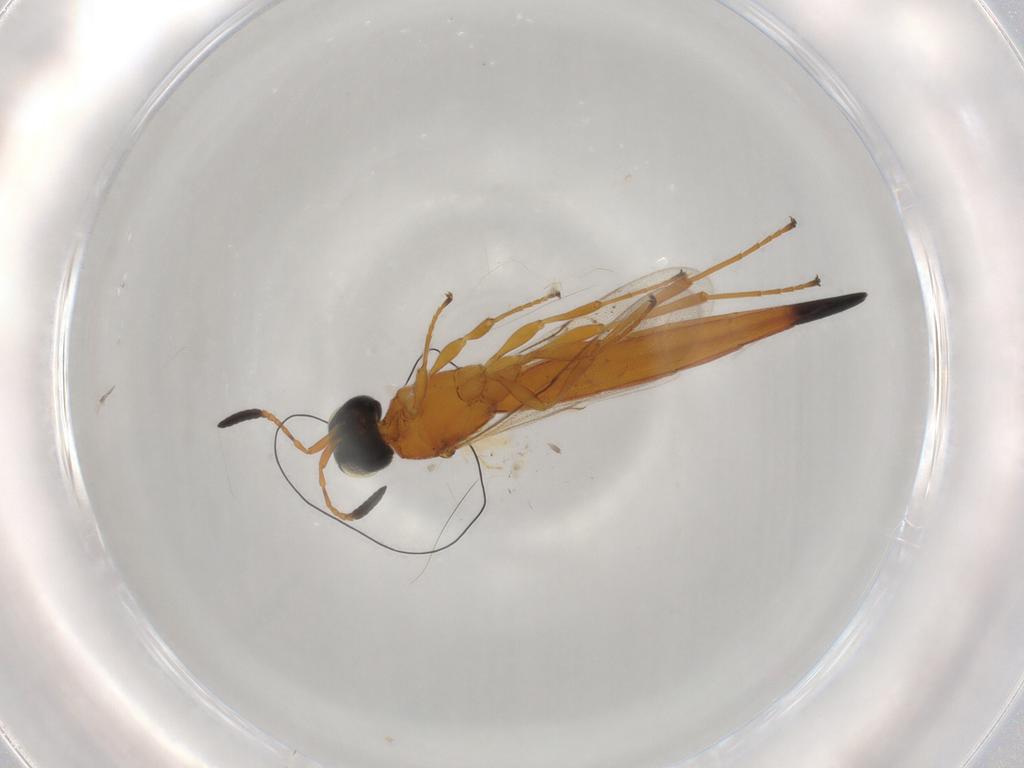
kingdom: Animalia
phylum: Arthropoda
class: Insecta
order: Hymenoptera
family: Scelionidae
